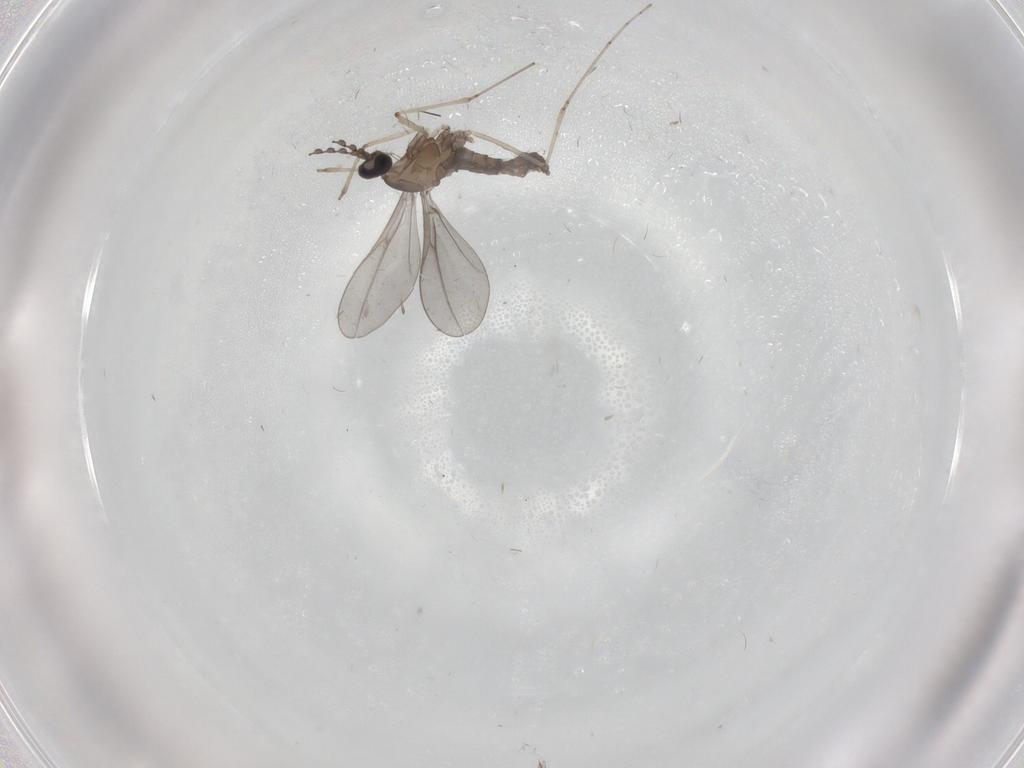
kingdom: Animalia
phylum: Arthropoda
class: Insecta
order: Diptera
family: Cecidomyiidae
